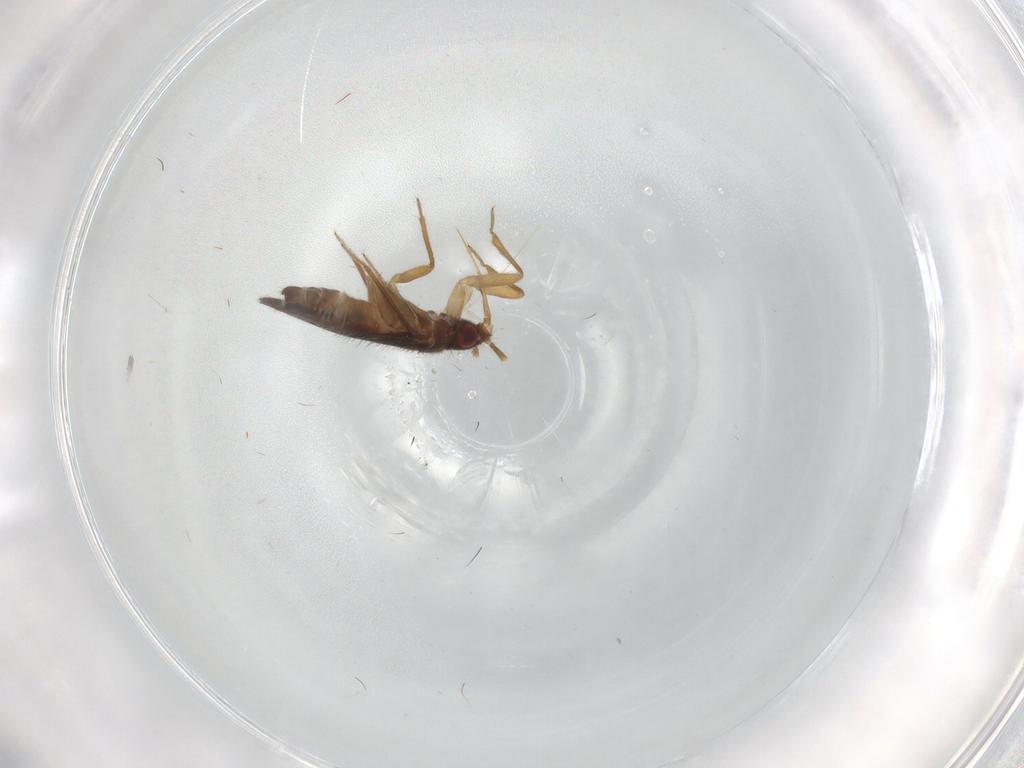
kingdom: Animalia
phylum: Arthropoda
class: Insecta
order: Hemiptera
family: Ceratocombidae
